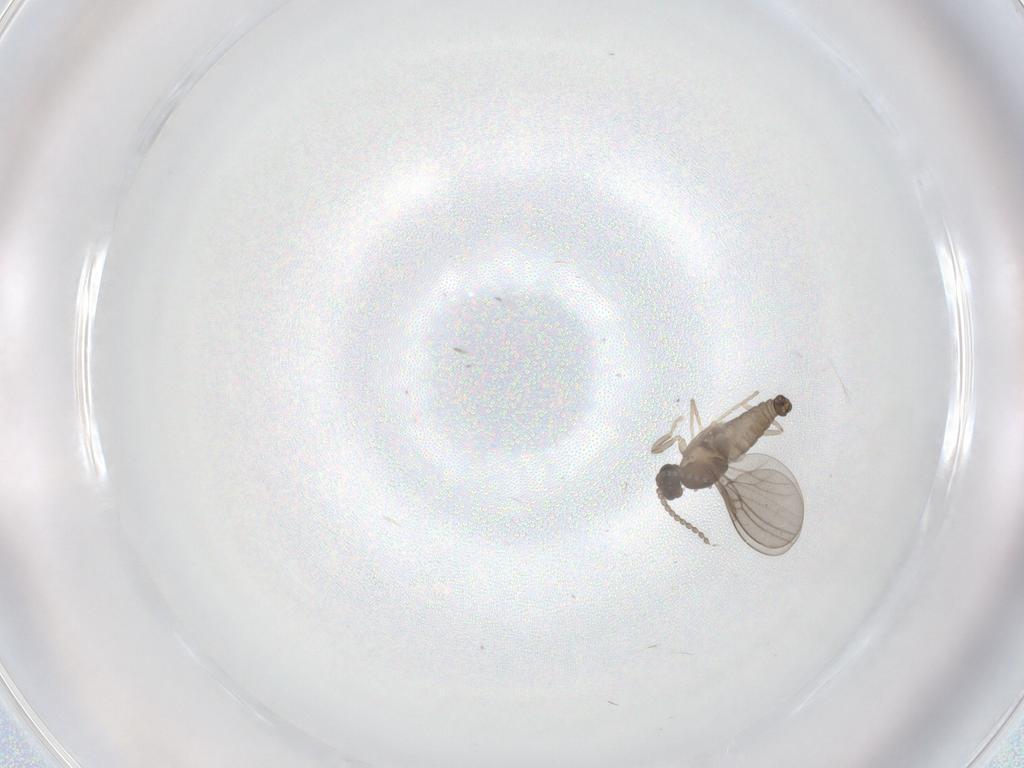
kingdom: Animalia
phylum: Arthropoda
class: Insecta
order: Diptera
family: Cecidomyiidae
